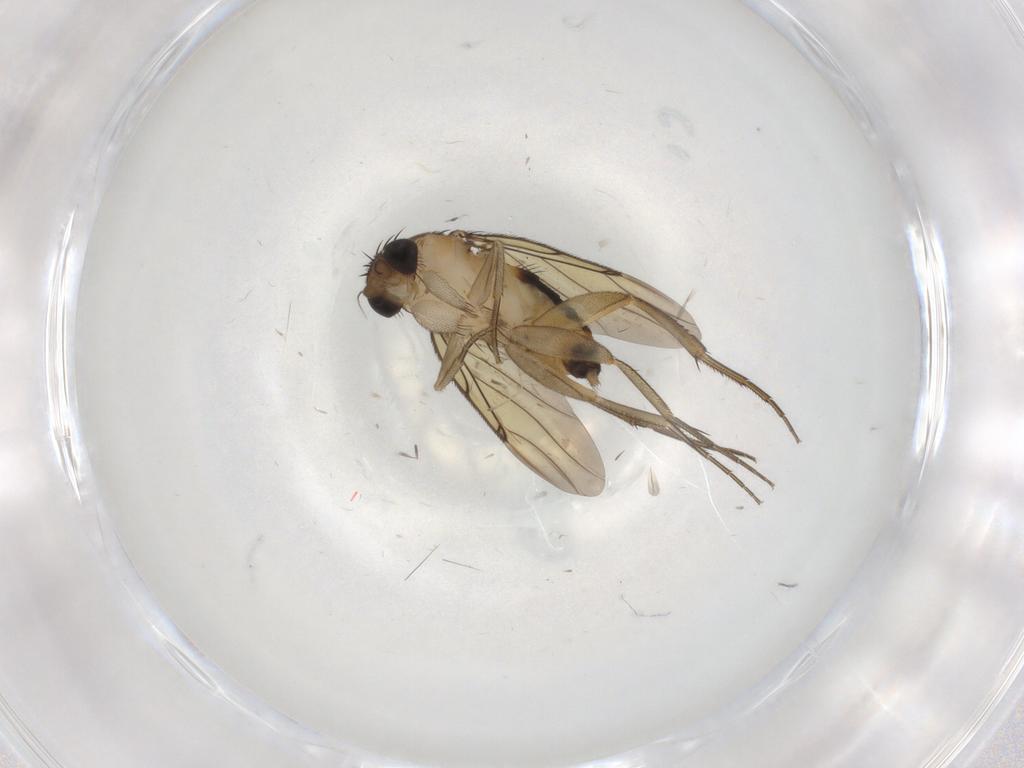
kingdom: Animalia
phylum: Arthropoda
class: Insecta
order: Diptera
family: Chironomidae
